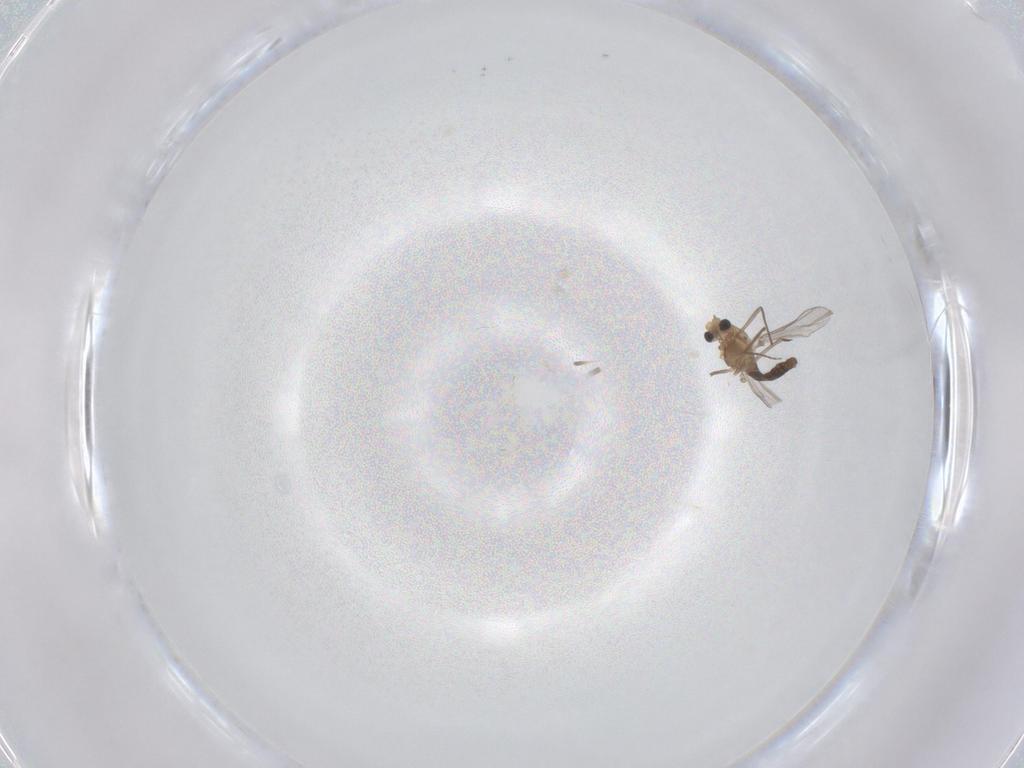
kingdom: Animalia
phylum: Arthropoda
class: Insecta
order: Diptera
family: Chironomidae
